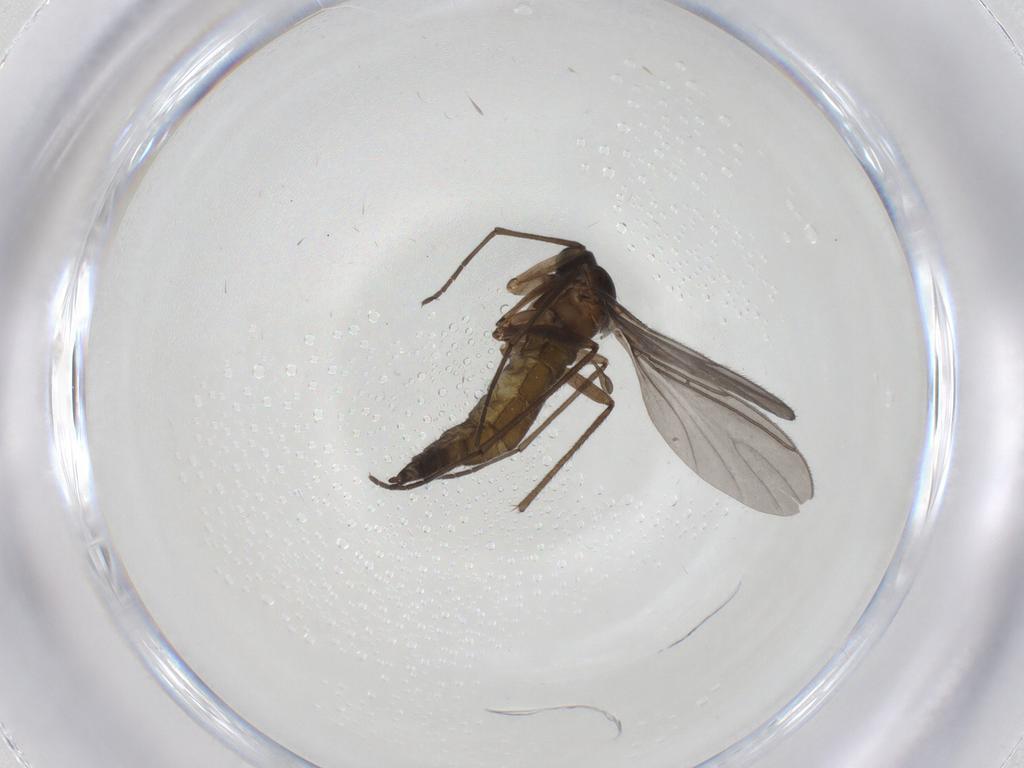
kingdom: Animalia
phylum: Arthropoda
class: Insecta
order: Diptera
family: Sciaridae
